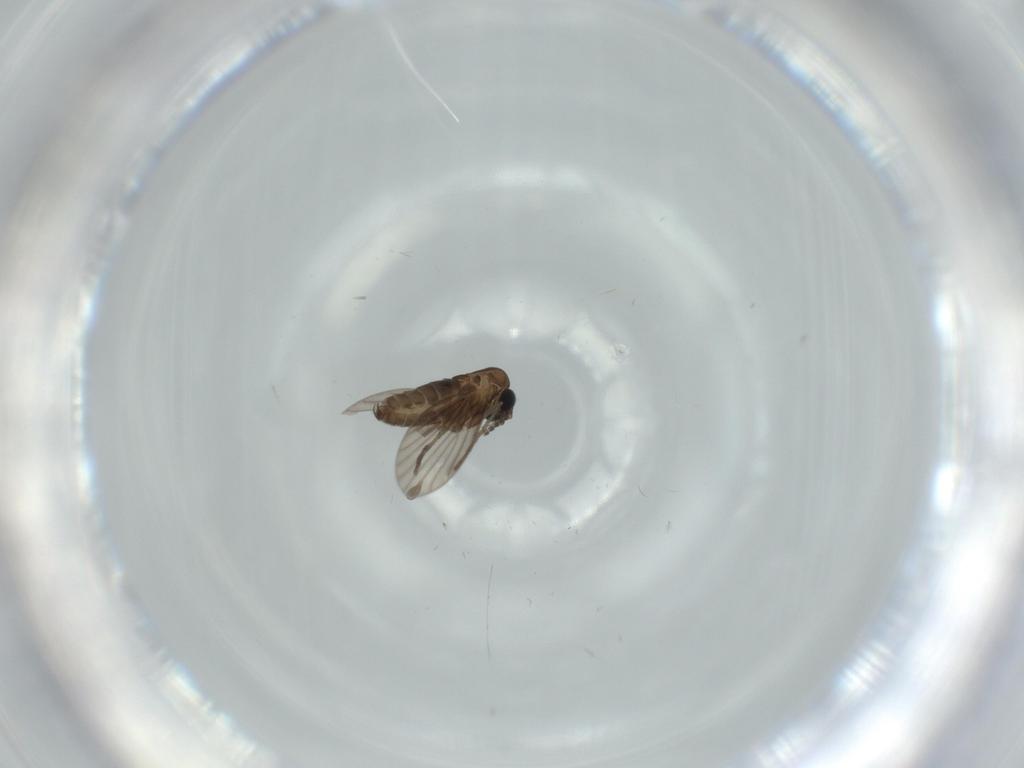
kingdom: Animalia
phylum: Arthropoda
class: Insecta
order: Diptera
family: Psychodidae
